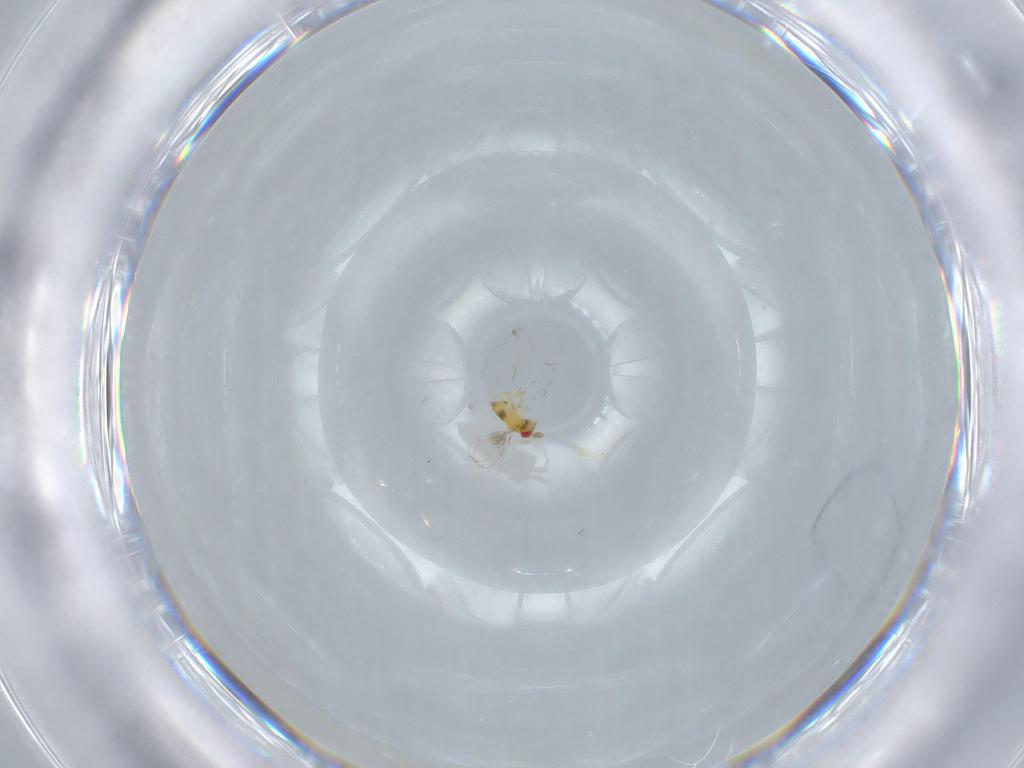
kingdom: Animalia
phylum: Arthropoda
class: Insecta
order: Hymenoptera
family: Trichogrammatidae
